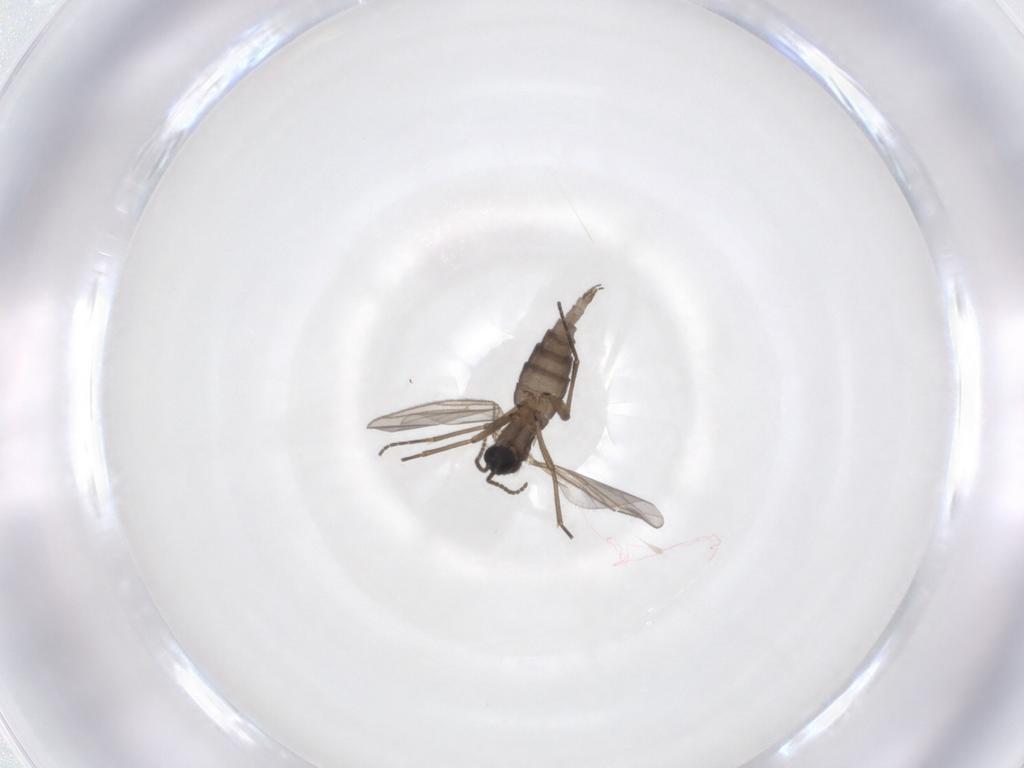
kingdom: Animalia
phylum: Arthropoda
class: Insecta
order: Diptera
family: Sciaridae
